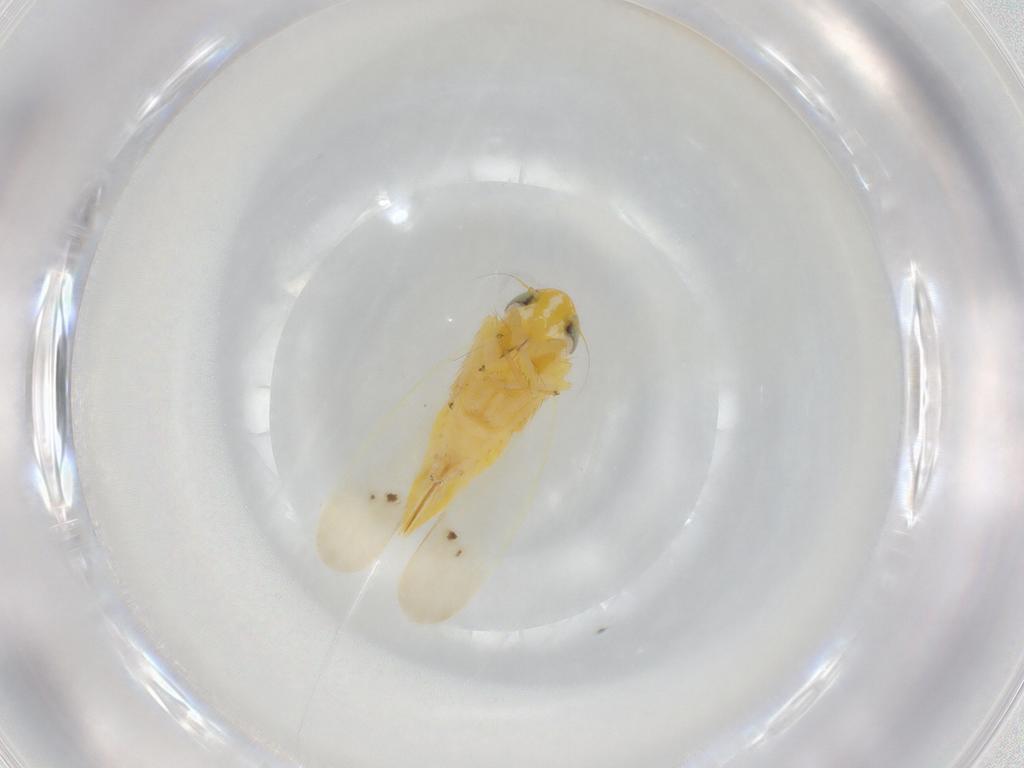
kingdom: Animalia
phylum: Arthropoda
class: Insecta
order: Hemiptera
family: Cicadellidae
